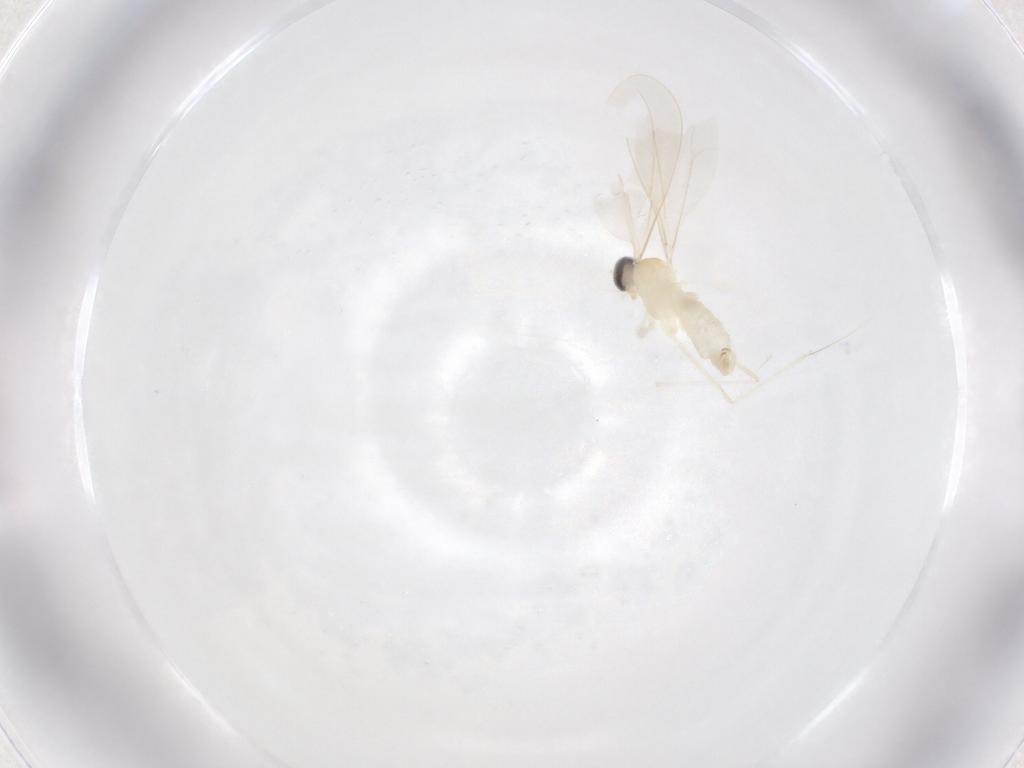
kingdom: Animalia
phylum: Arthropoda
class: Insecta
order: Diptera
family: Cecidomyiidae
